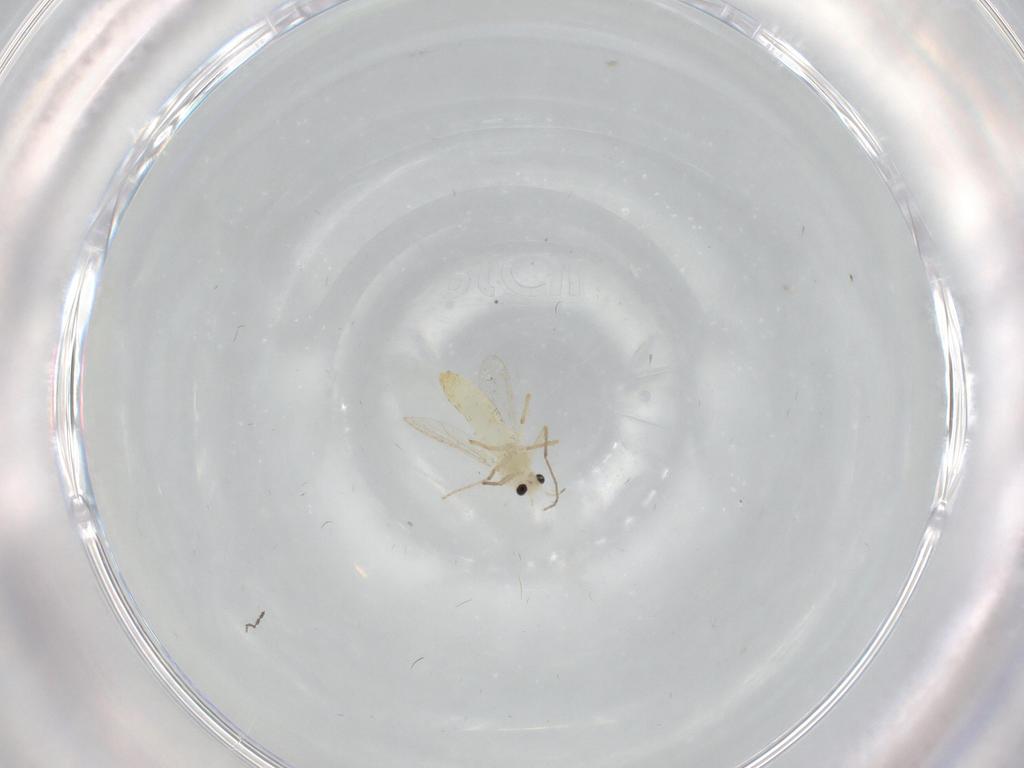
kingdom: Animalia
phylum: Arthropoda
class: Insecta
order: Diptera
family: Chironomidae
